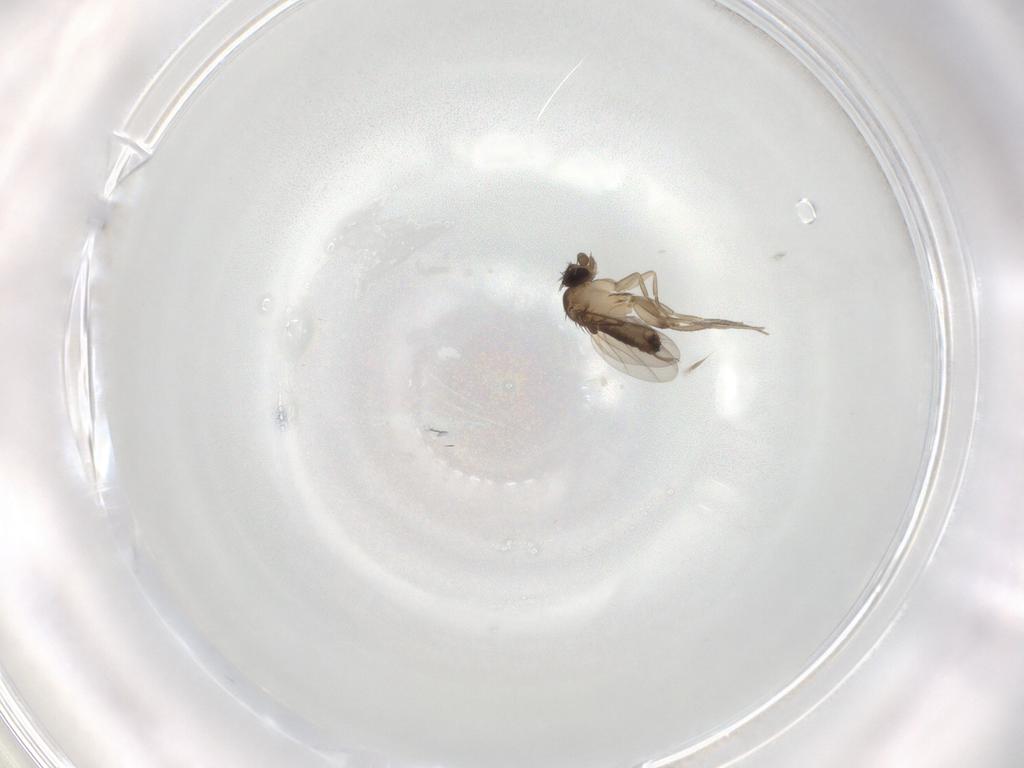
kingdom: Animalia
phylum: Arthropoda
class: Insecta
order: Diptera
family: Phoridae
